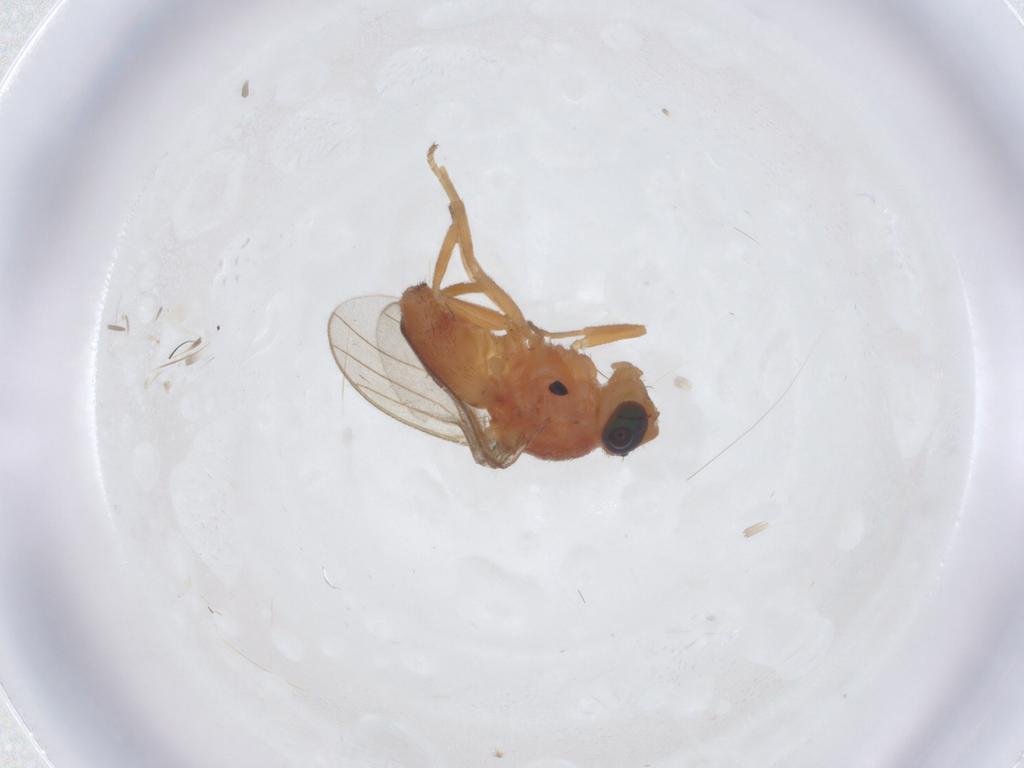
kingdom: Animalia
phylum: Arthropoda
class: Insecta
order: Diptera
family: Chloropidae
